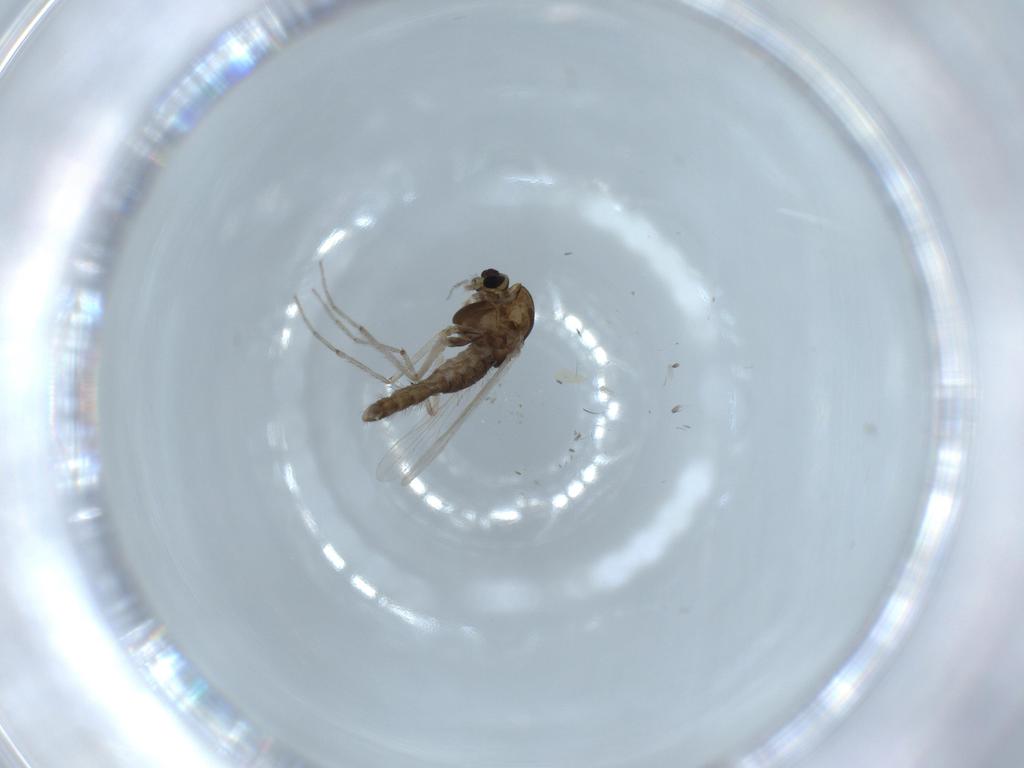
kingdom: Animalia
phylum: Arthropoda
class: Insecta
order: Diptera
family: Chironomidae
